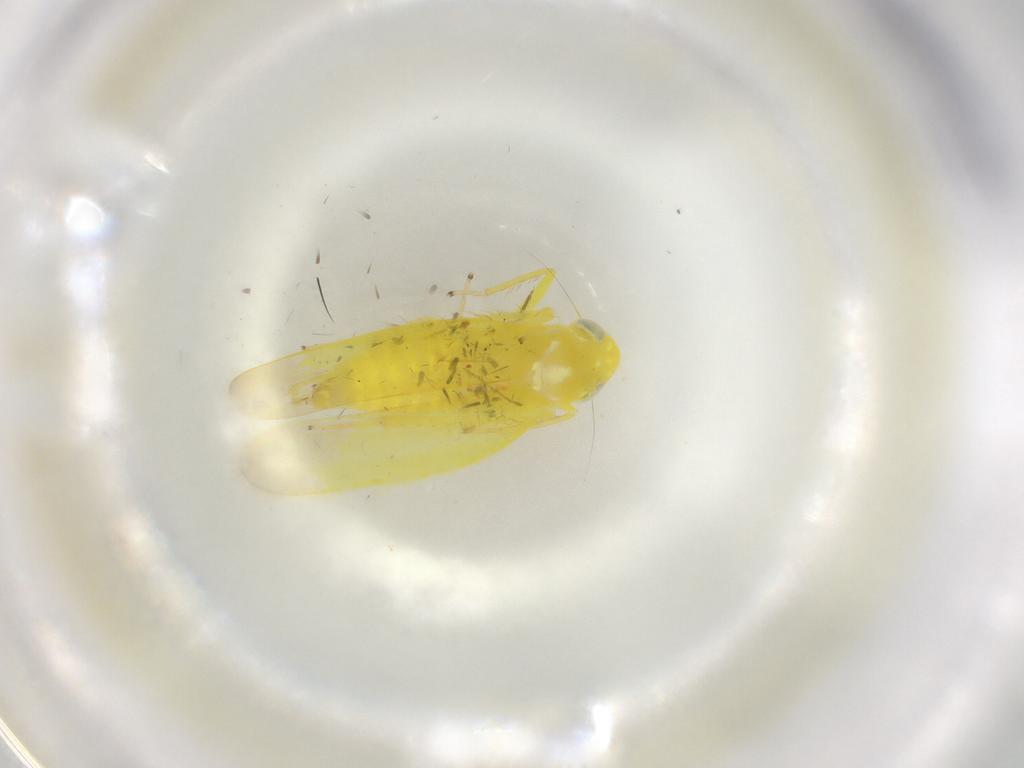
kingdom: Animalia
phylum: Arthropoda
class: Insecta
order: Hemiptera
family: Cicadellidae
